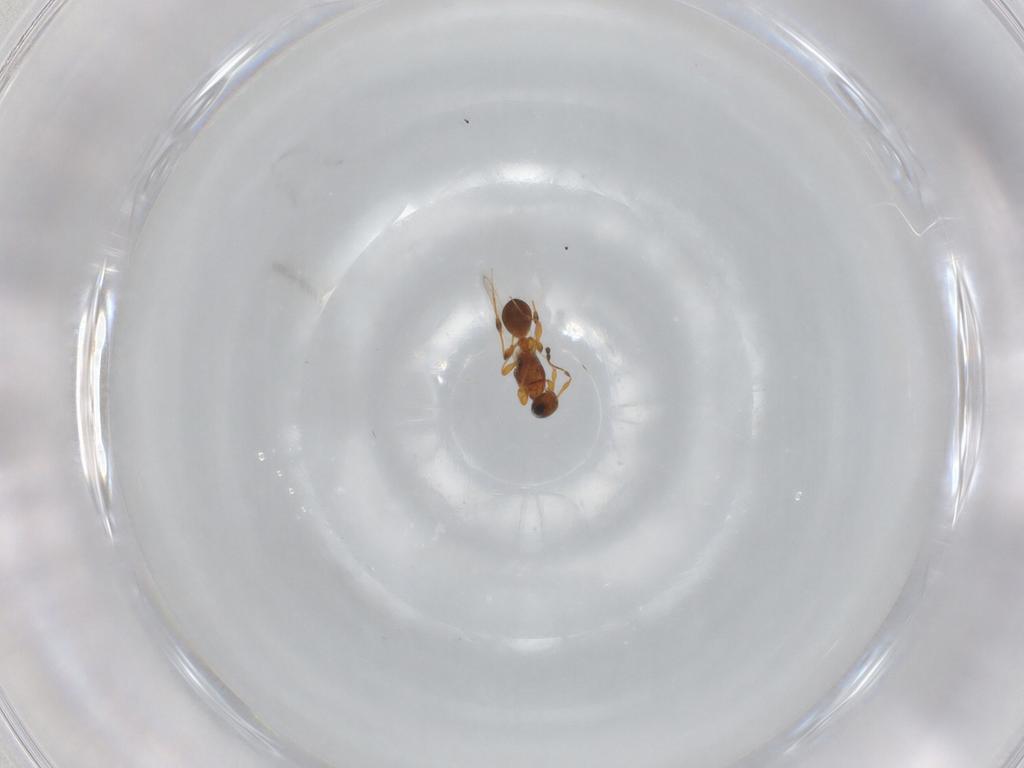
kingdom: Animalia
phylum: Arthropoda
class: Insecta
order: Hymenoptera
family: Platygastridae
